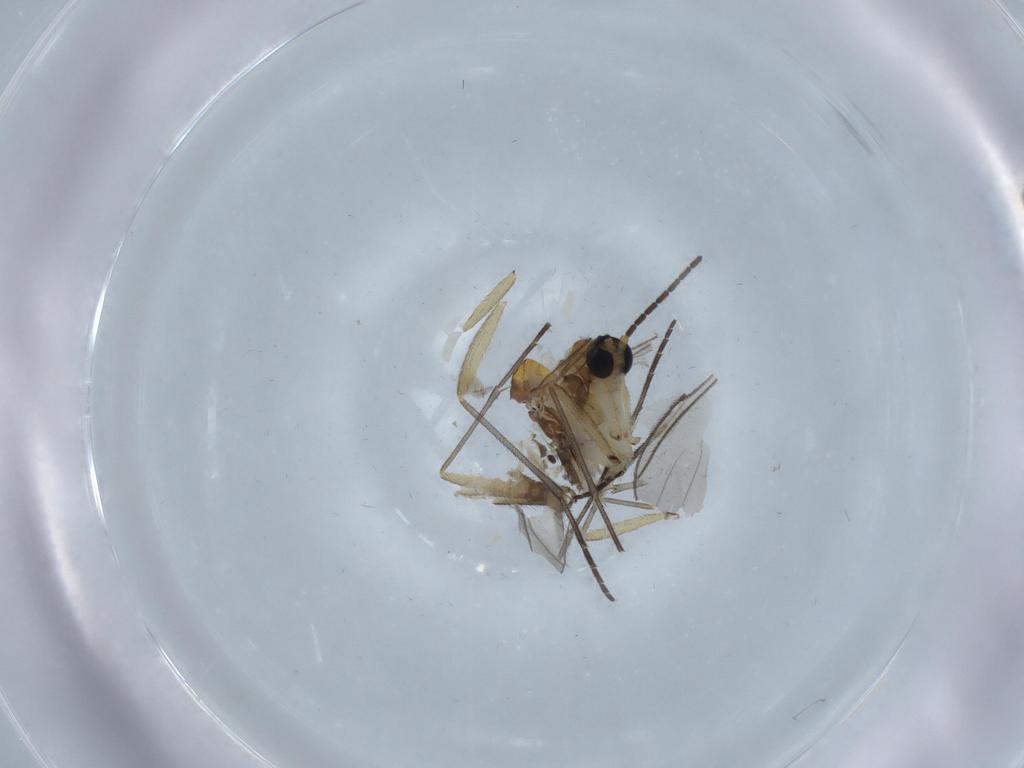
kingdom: Animalia
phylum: Arthropoda
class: Insecta
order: Diptera
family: Sciaridae
